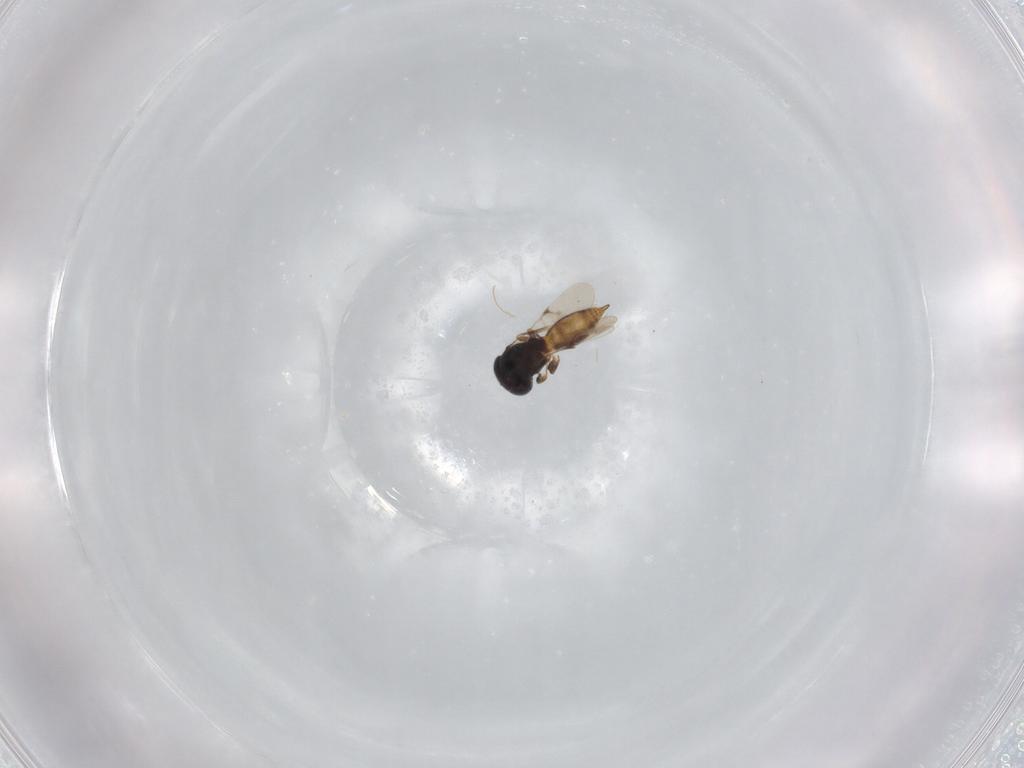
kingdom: Animalia
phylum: Arthropoda
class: Insecta
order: Hymenoptera
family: Scelionidae
